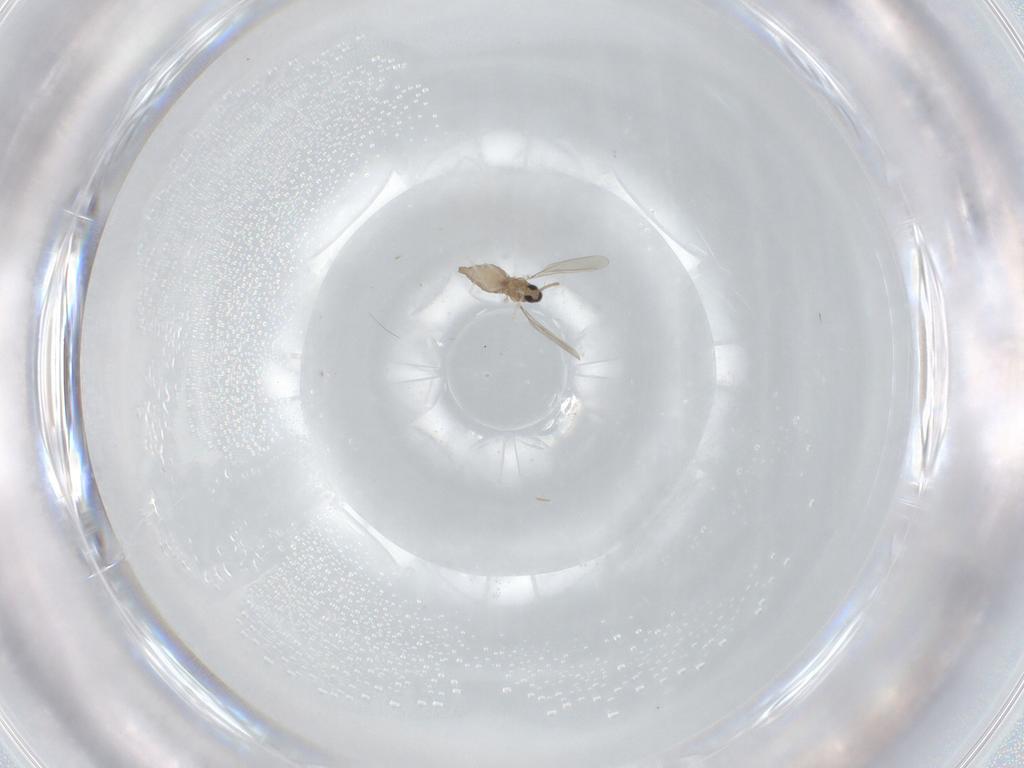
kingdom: Animalia
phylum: Arthropoda
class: Insecta
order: Diptera
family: Cecidomyiidae
